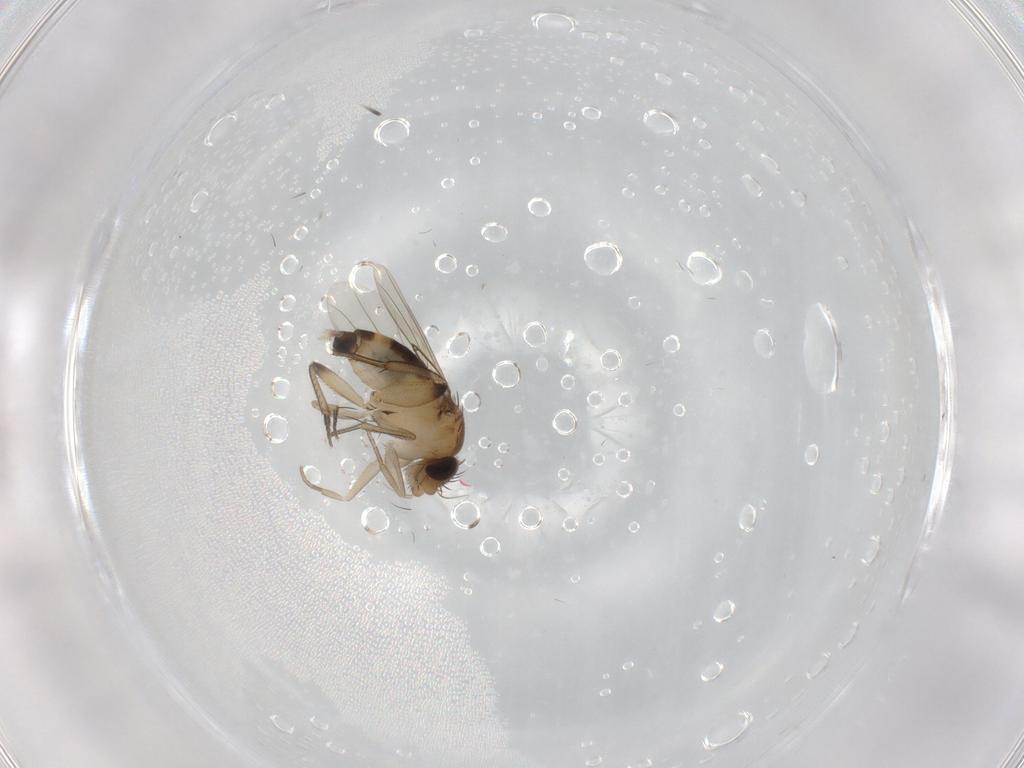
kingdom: Animalia
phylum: Arthropoda
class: Insecta
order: Diptera
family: Phoridae
